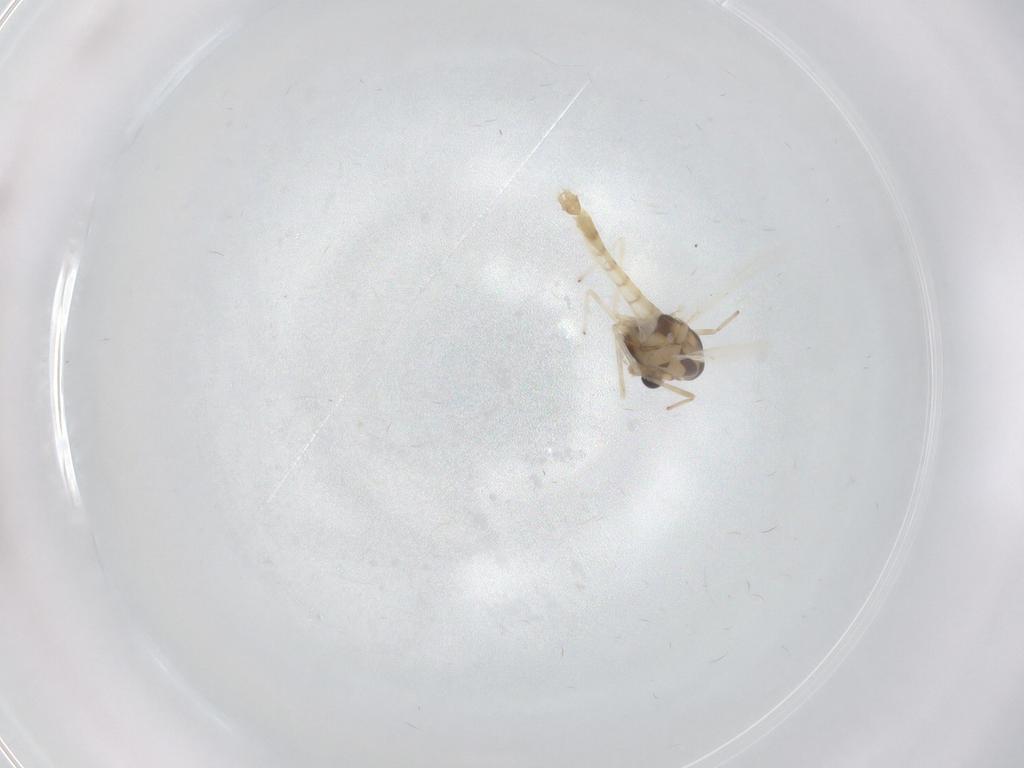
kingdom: Animalia
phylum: Arthropoda
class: Insecta
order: Diptera
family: Chironomidae
